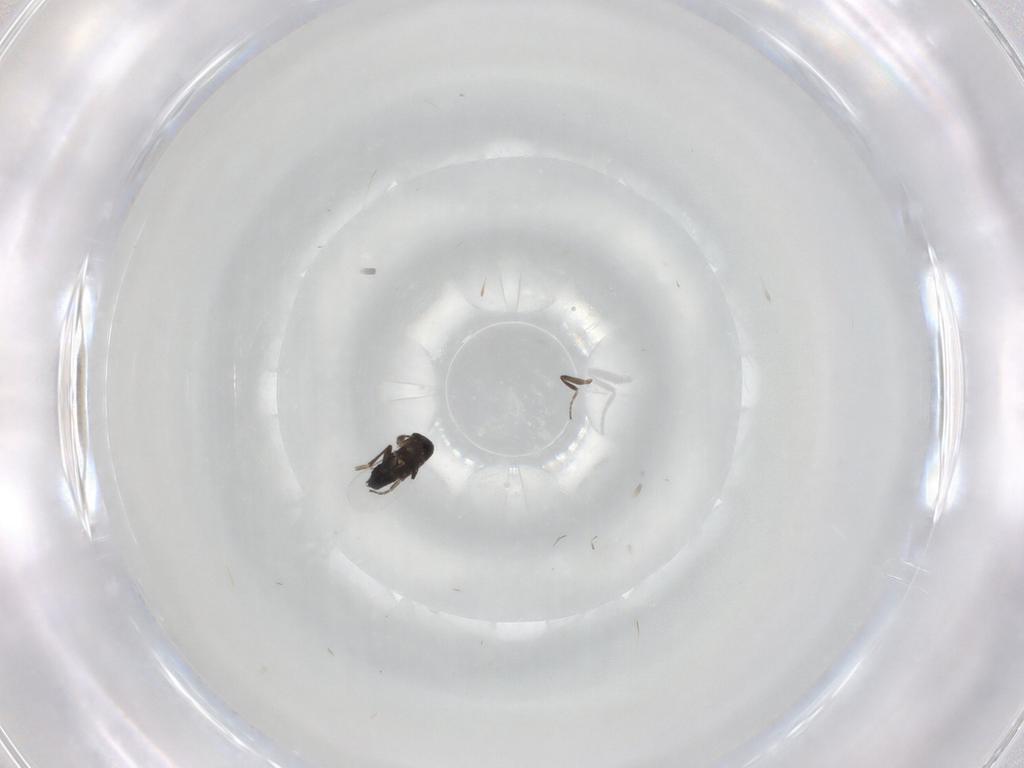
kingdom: Animalia
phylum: Arthropoda
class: Insecta
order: Diptera
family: Phoridae
